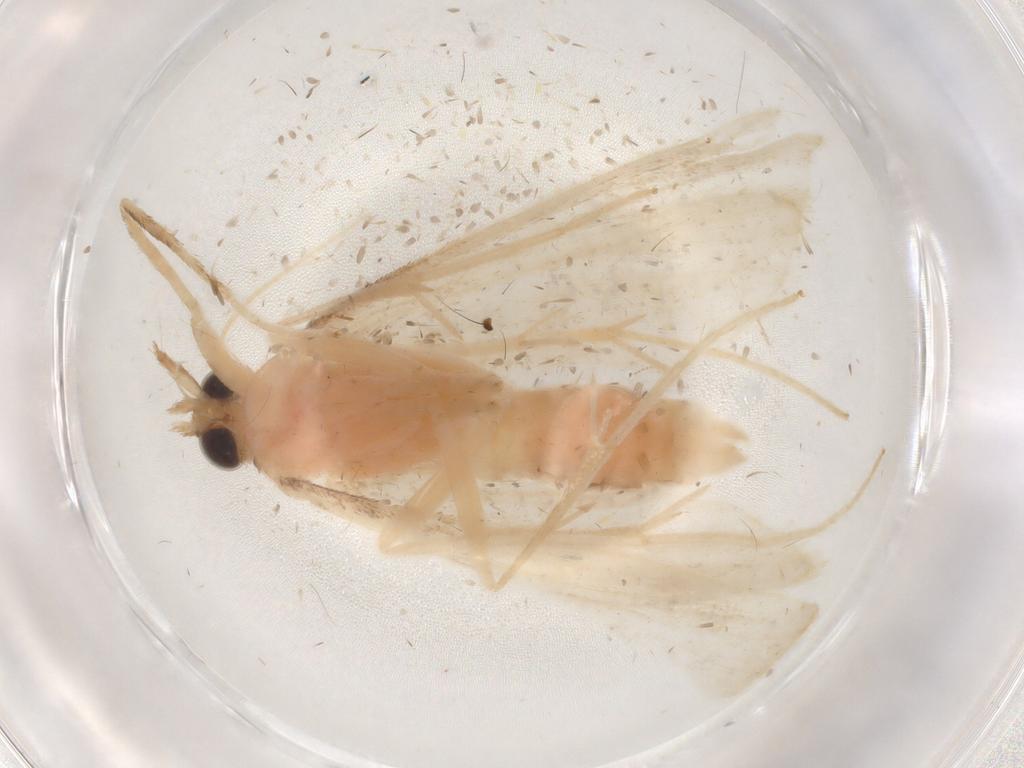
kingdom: Animalia
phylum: Arthropoda
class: Insecta
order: Lepidoptera
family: Crambidae
